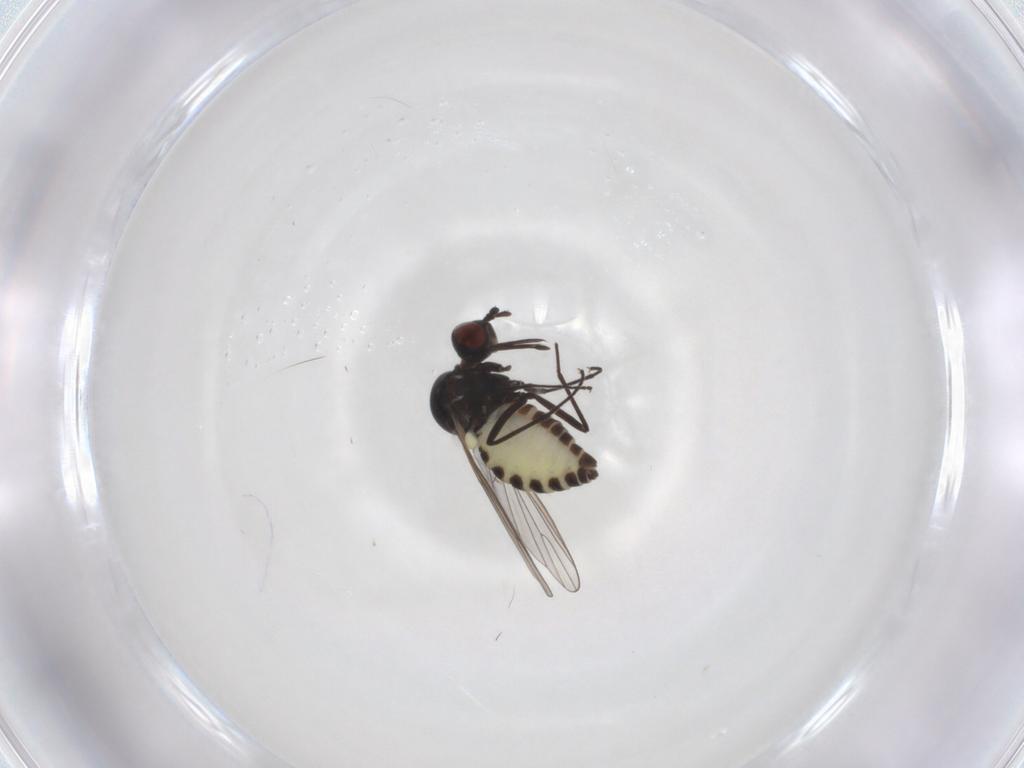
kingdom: Animalia
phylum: Arthropoda
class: Insecta
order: Diptera
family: Bombyliidae
